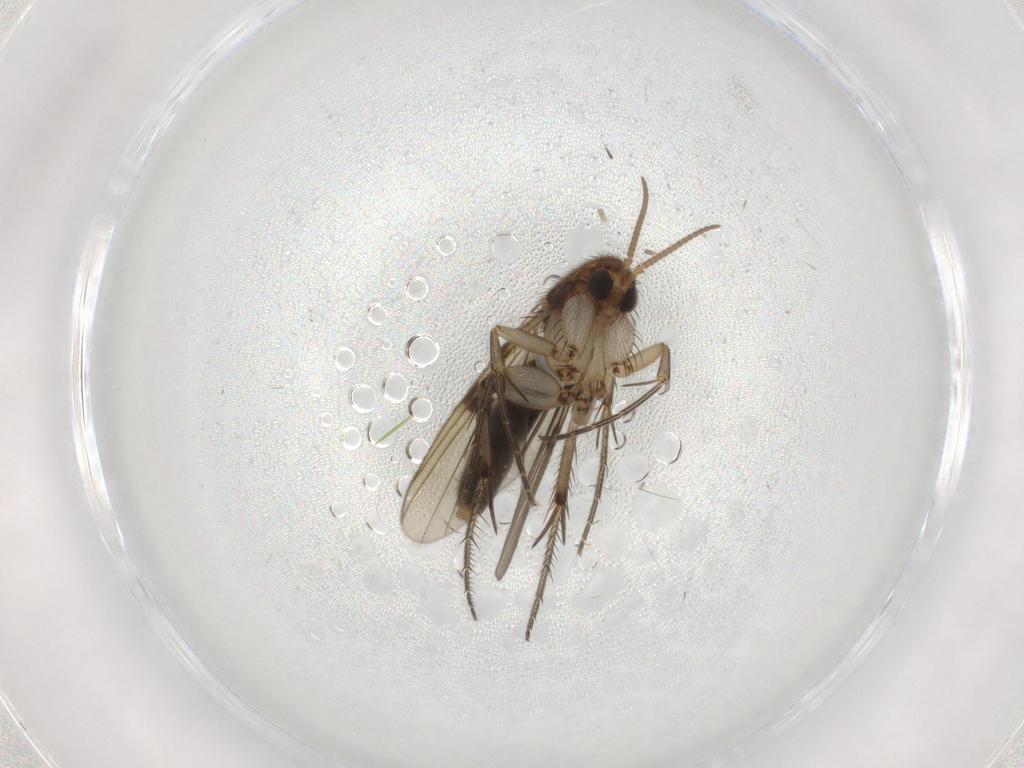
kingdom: Animalia
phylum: Arthropoda
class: Insecta
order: Diptera
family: Mycetophilidae
